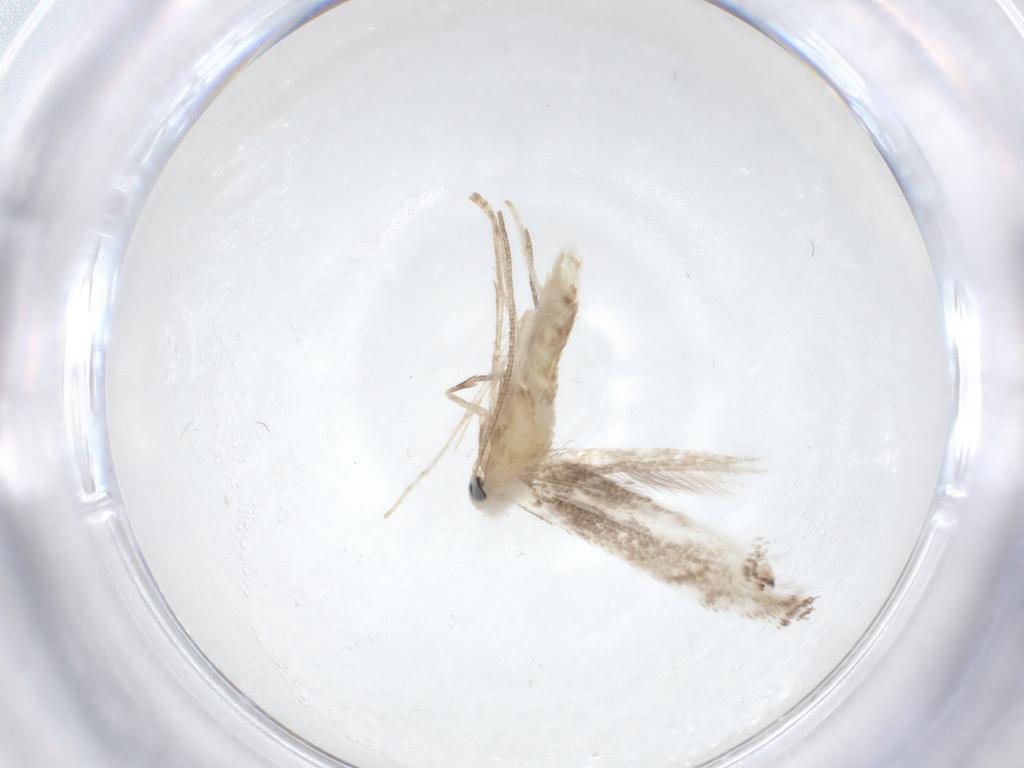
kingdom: Animalia
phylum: Arthropoda
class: Insecta
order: Lepidoptera
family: Lyonetiidae
